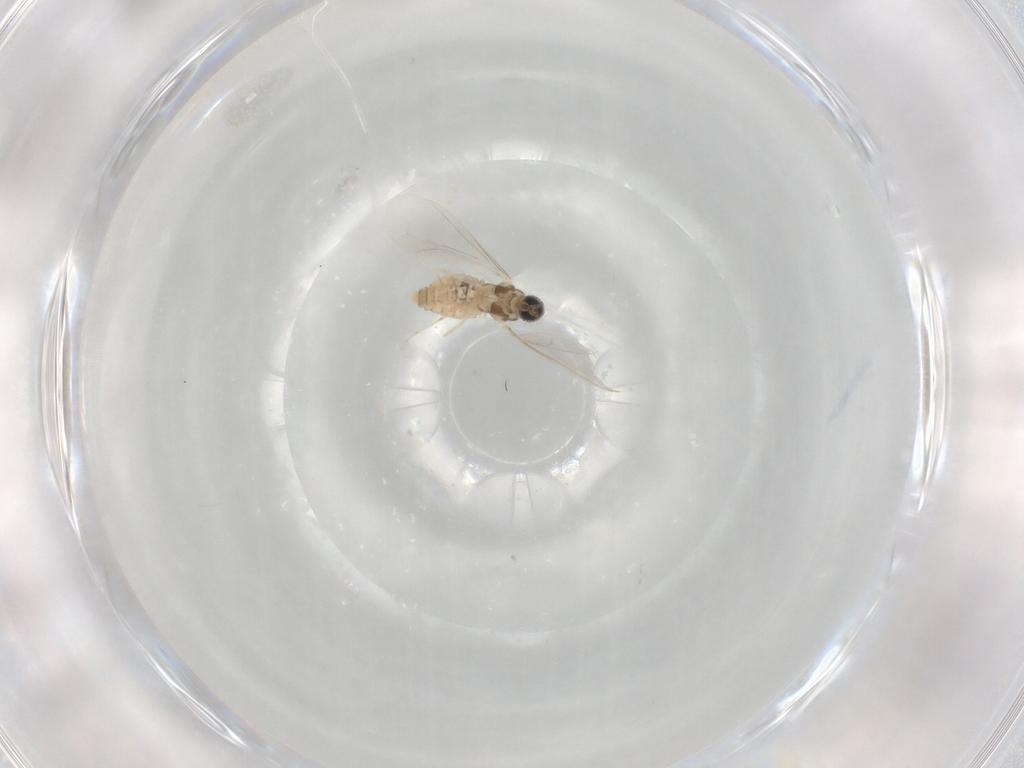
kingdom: Animalia
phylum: Arthropoda
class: Insecta
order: Diptera
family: Cecidomyiidae
